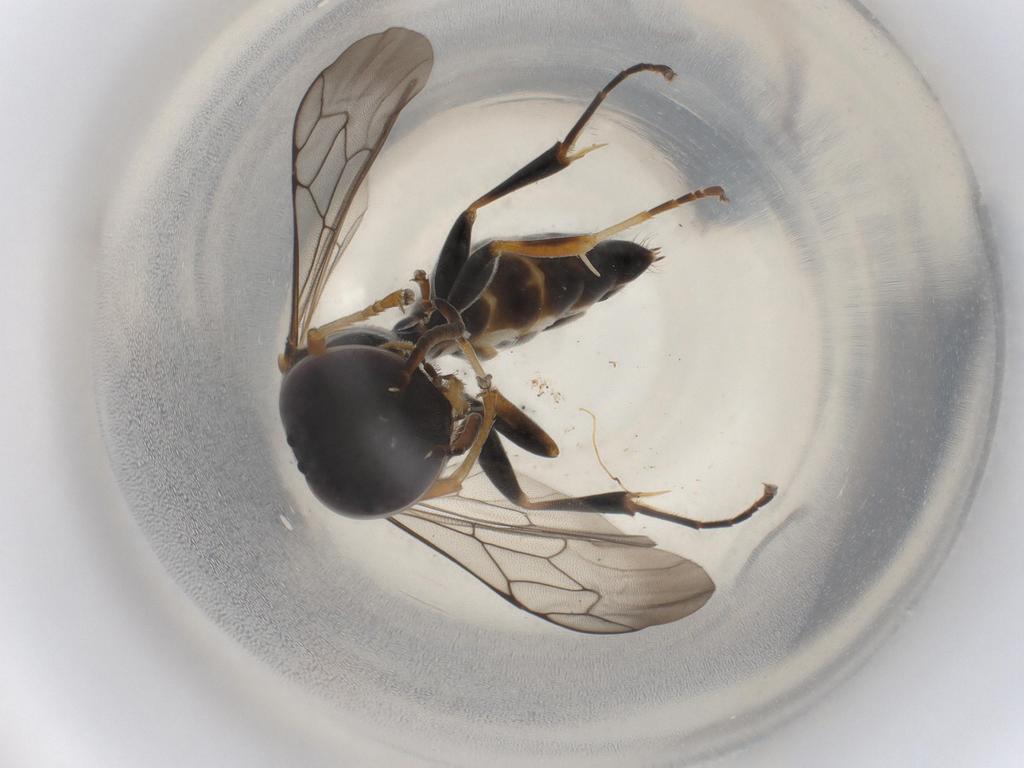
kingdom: Animalia
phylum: Arthropoda
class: Insecta
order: Hymenoptera
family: Crabronidae
